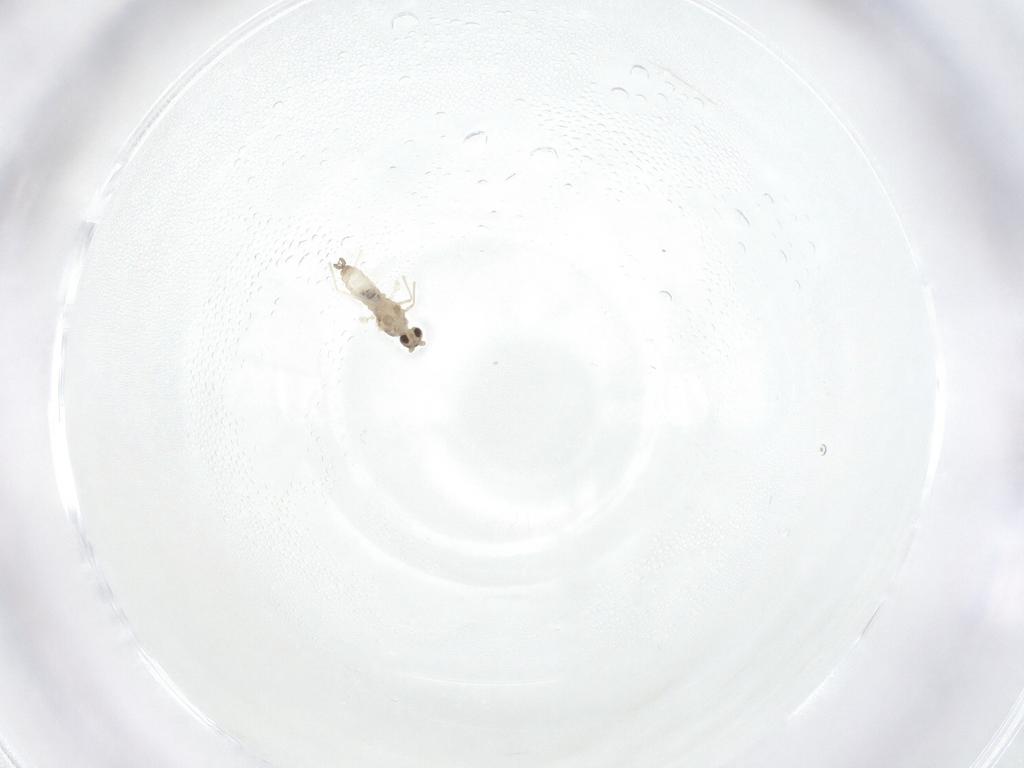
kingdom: Animalia
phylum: Arthropoda
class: Insecta
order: Diptera
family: Cecidomyiidae
